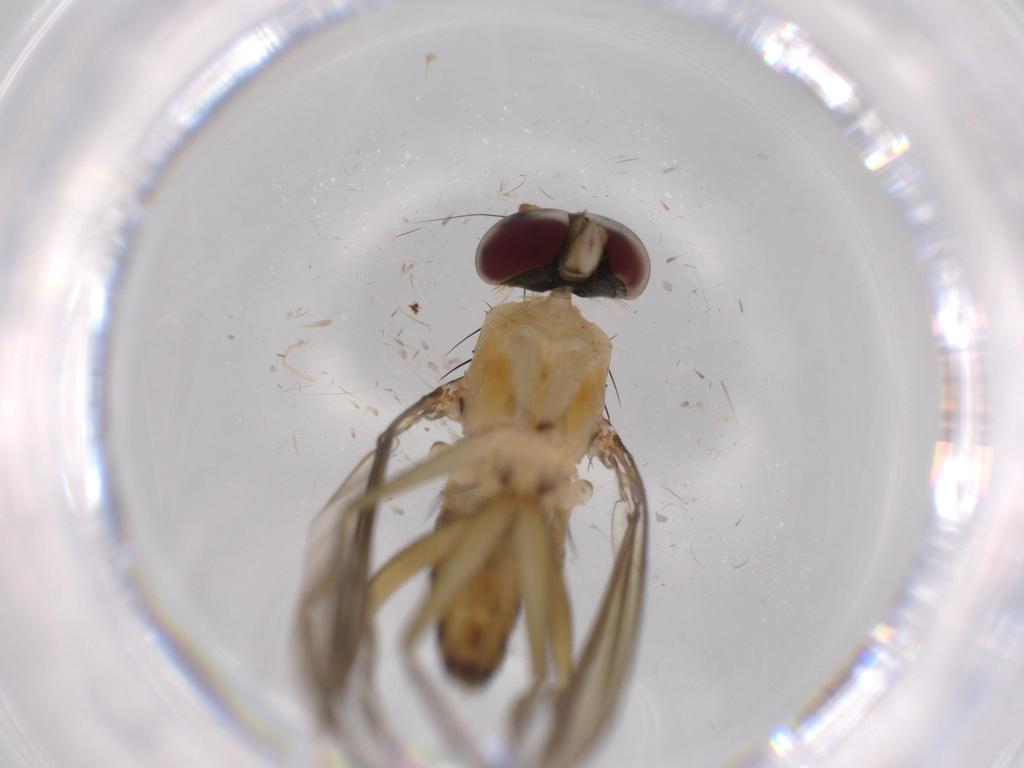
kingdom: Animalia
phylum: Arthropoda
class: Insecta
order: Diptera
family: Dolichopodidae
